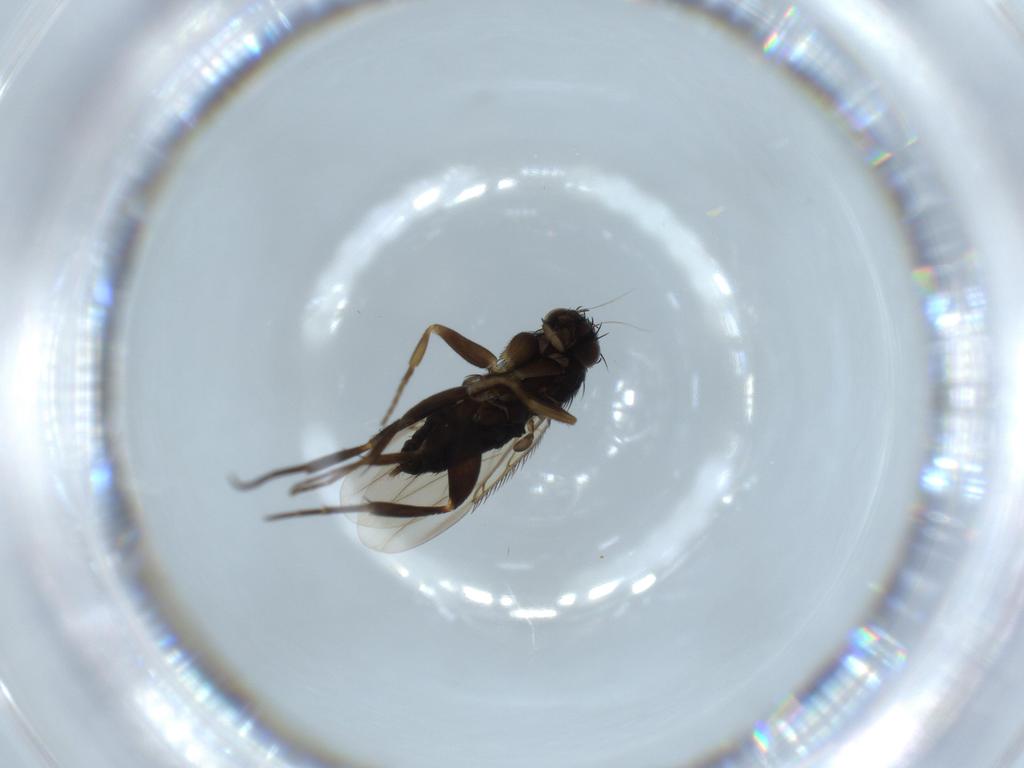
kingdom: Animalia
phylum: Arthropoda
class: Insecta
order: Diptera
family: Phoridae
